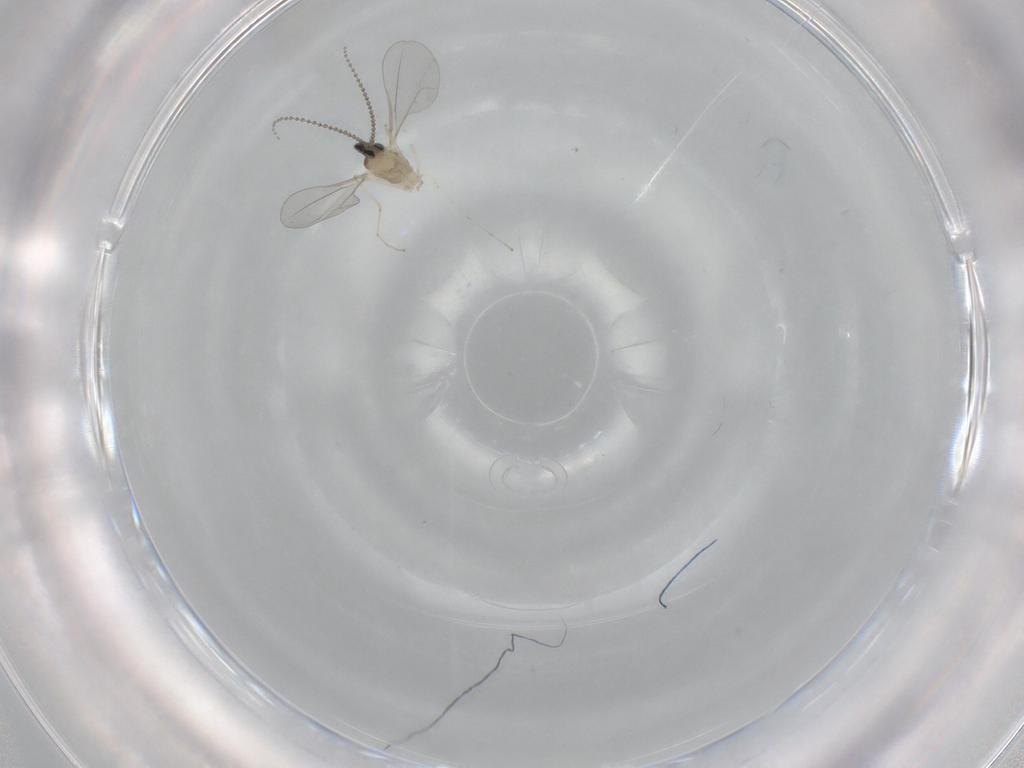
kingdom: Animalia
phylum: Arthropoda
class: Insecta
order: Diptera
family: Cecidomyiidae
